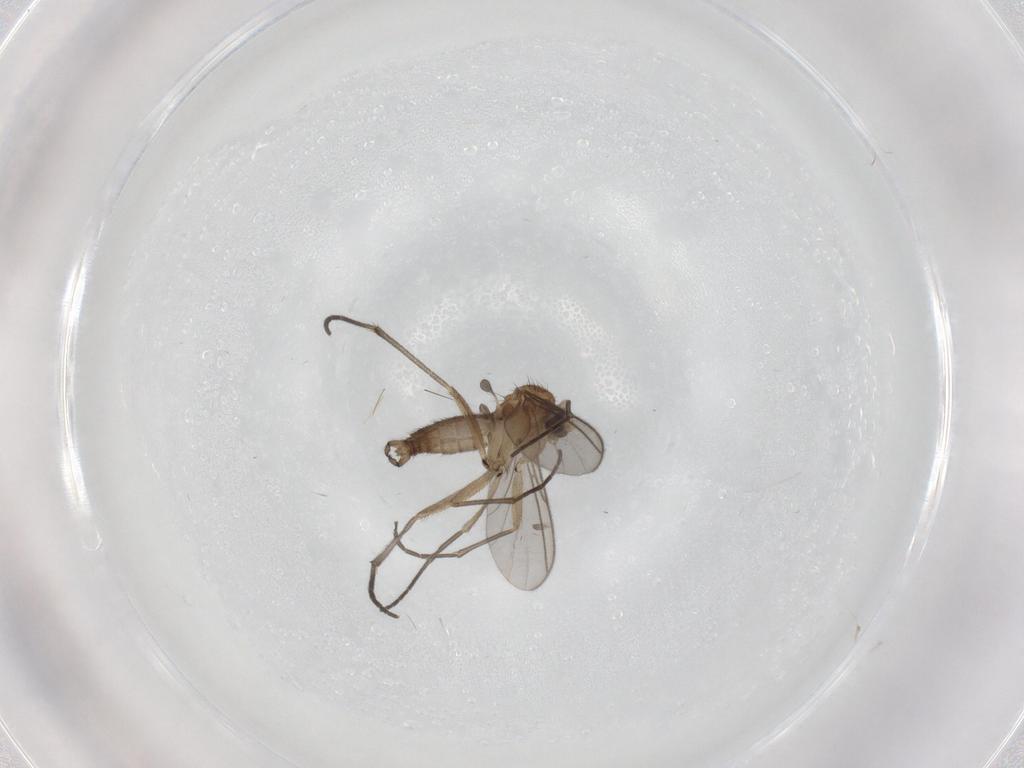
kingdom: Animalia
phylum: Arthropoda
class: Insecta
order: Diptera
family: Sciaridae
